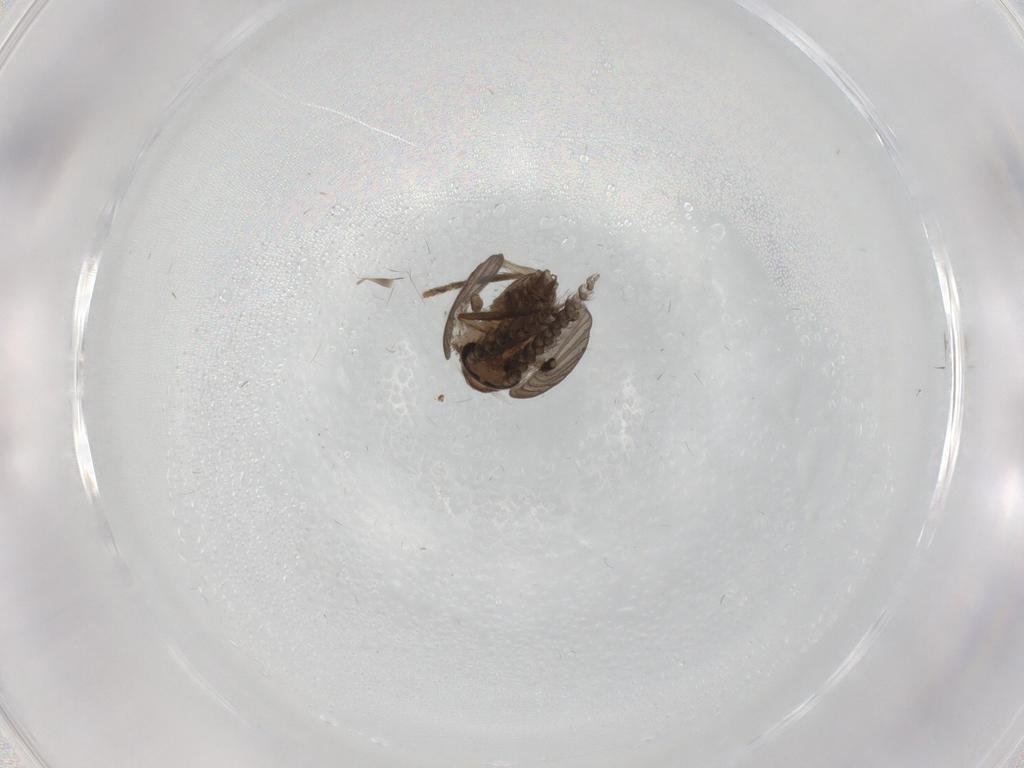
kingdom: Animalia
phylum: Arthropoda
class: Insecta
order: Diptera
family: Psychodidae
